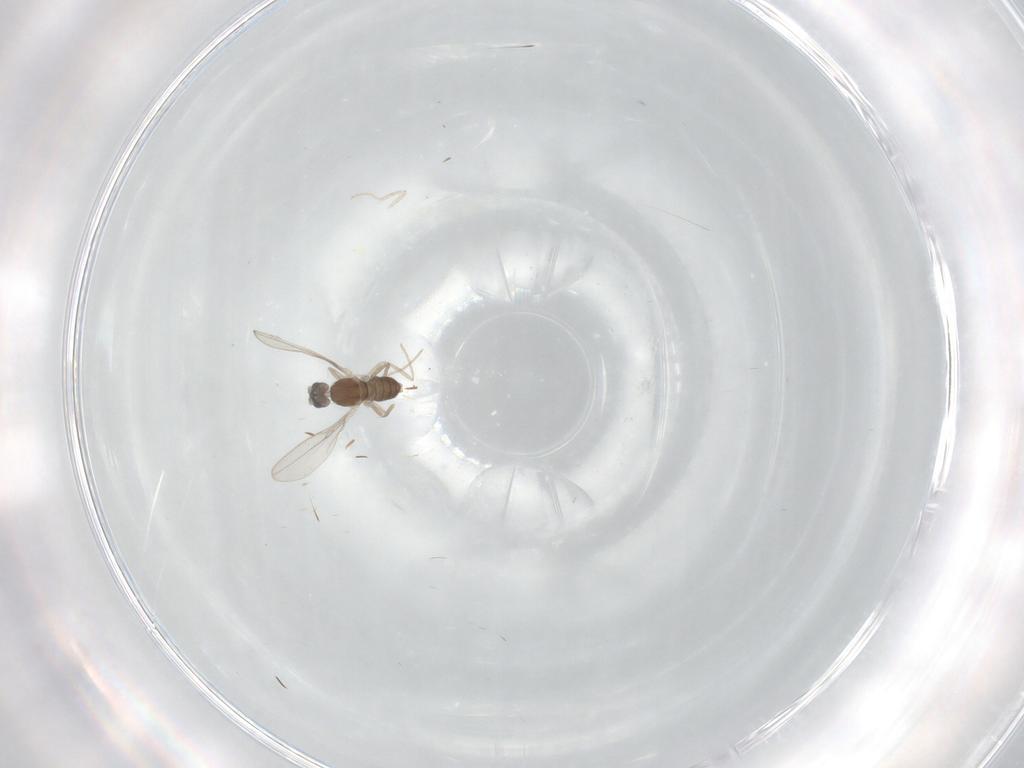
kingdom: Animalia
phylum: Arthropoda
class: Insecta
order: Diptera
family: Cecidomyiidae
